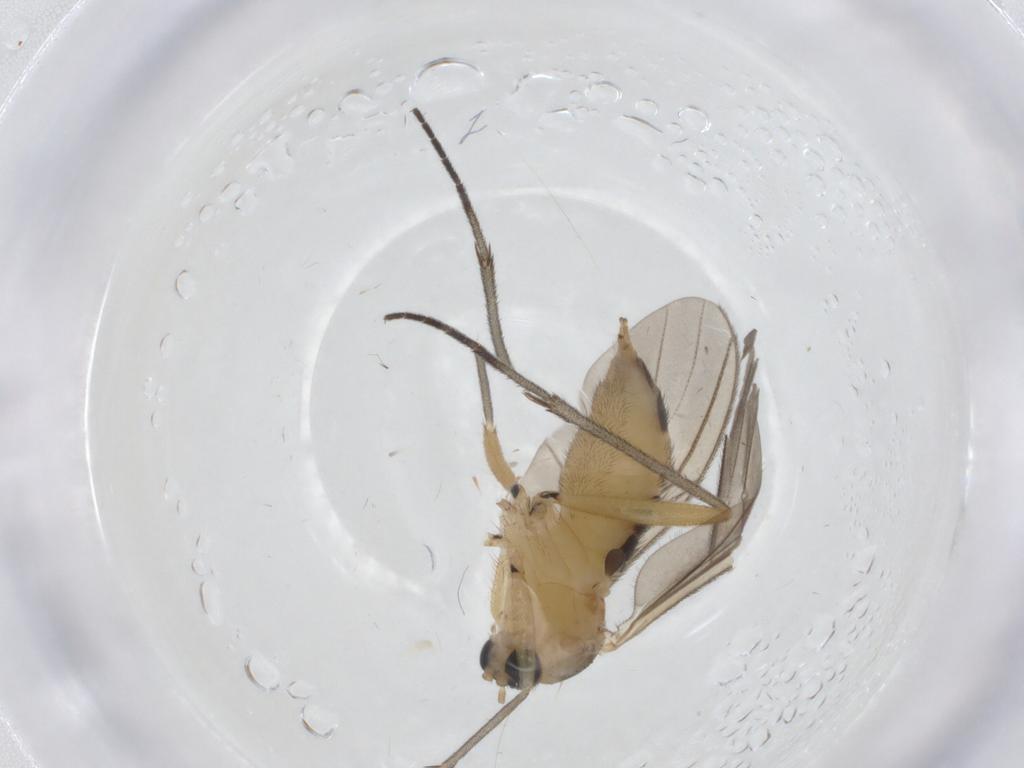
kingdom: Animalia
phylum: Arthropoda
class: Insecta
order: Diptera
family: Sciaridae
